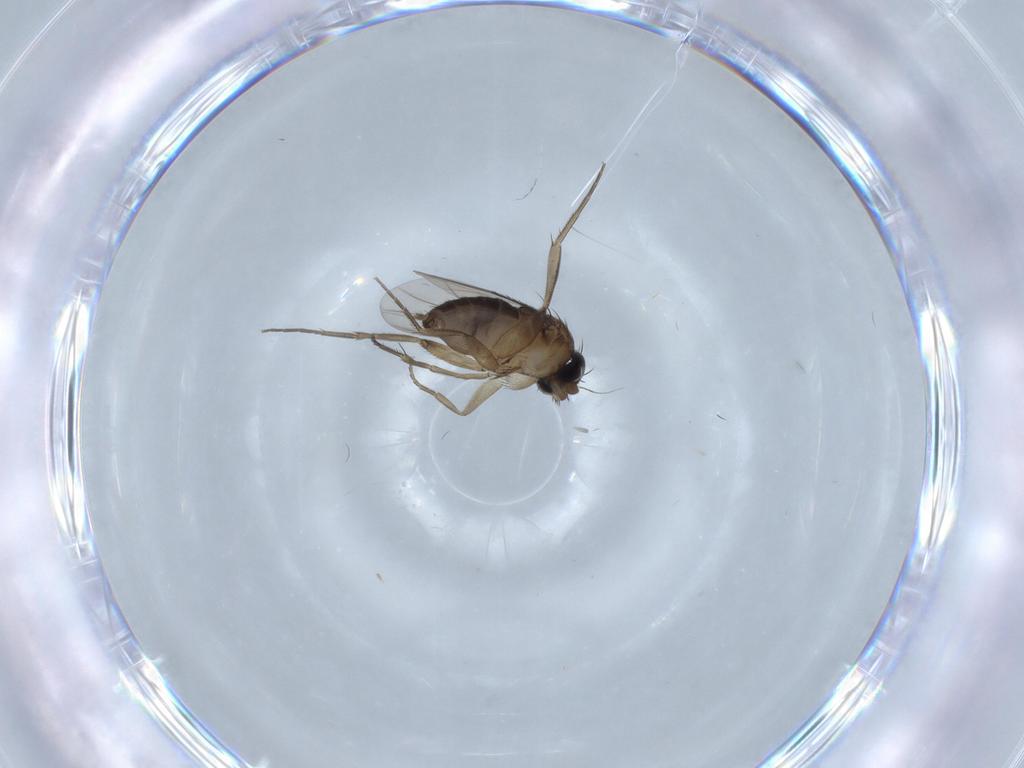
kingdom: Animalia
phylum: Arthropoda
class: Insecta
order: Diptera
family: Phoridae
